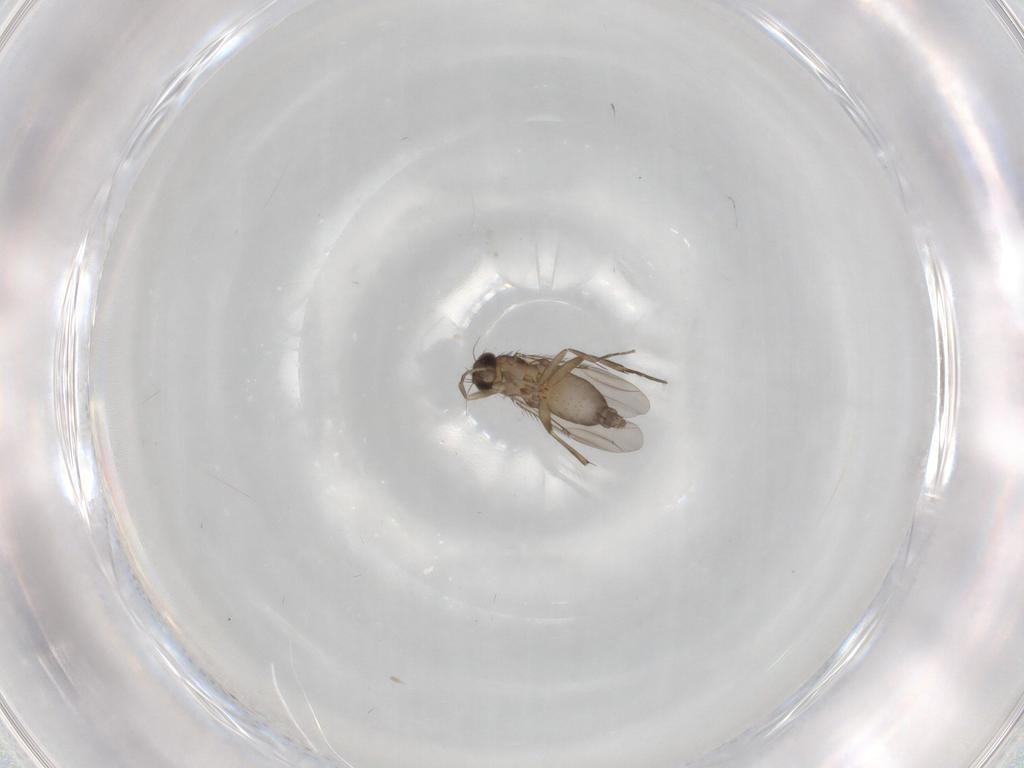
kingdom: Animalia
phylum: Arthropoda
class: Insecta
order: Diptera
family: Phoridae
